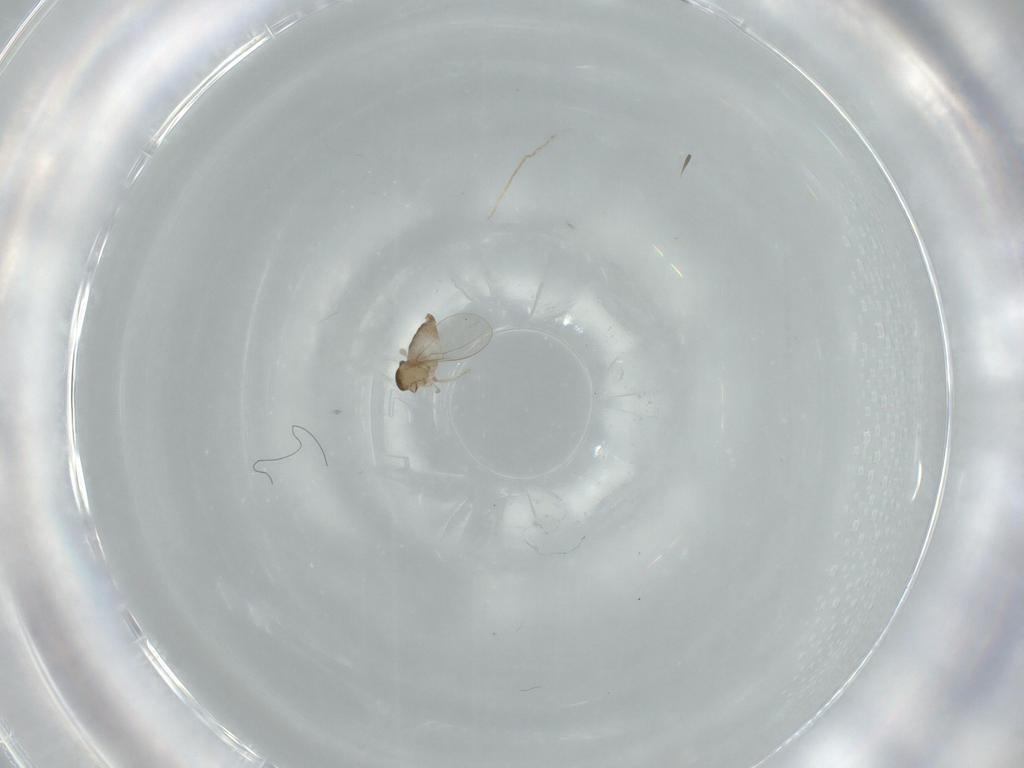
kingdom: Animalia
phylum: Arthropoda
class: Insecta
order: Diptera
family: Cecidomyiidae
